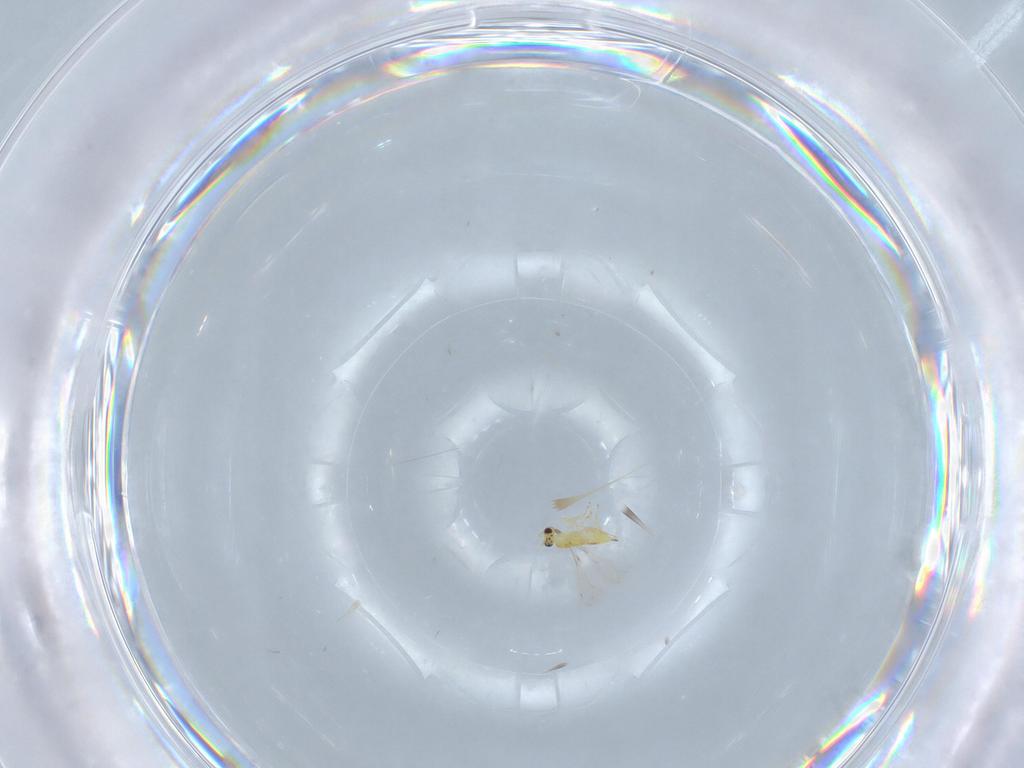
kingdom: Animalia
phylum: Arthropoda
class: Insecta
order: Hymenoptera
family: Mymaridae
